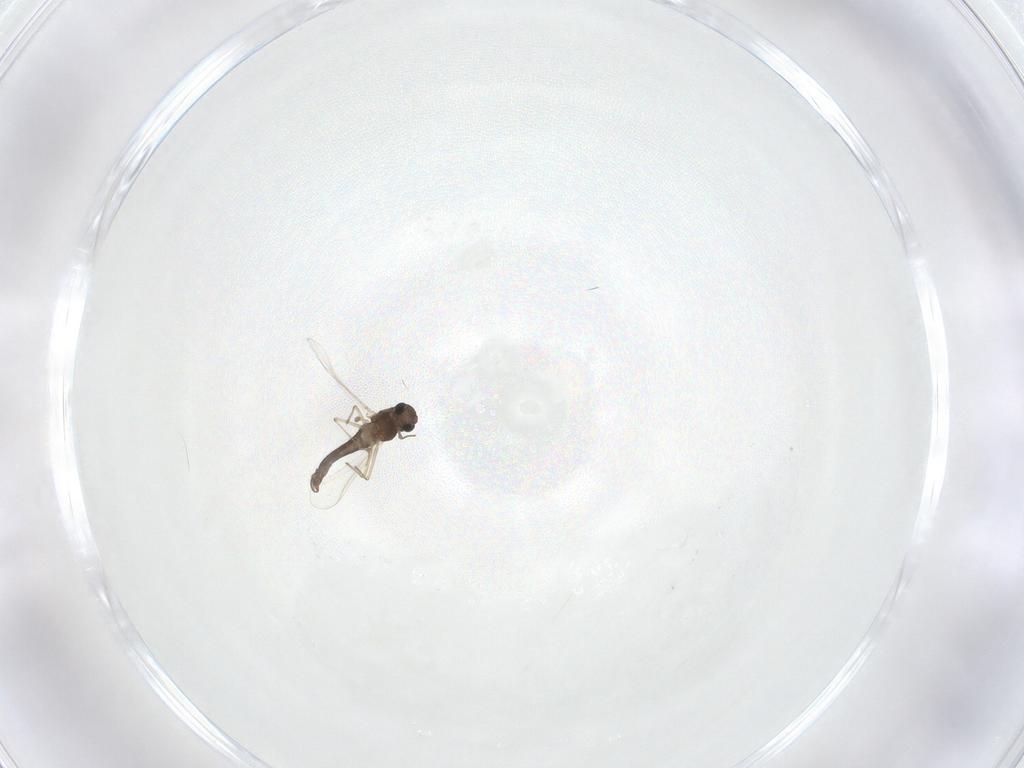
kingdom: Animalia
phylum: Arthropoda
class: Insecta
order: Diptera
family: Chironomidae
